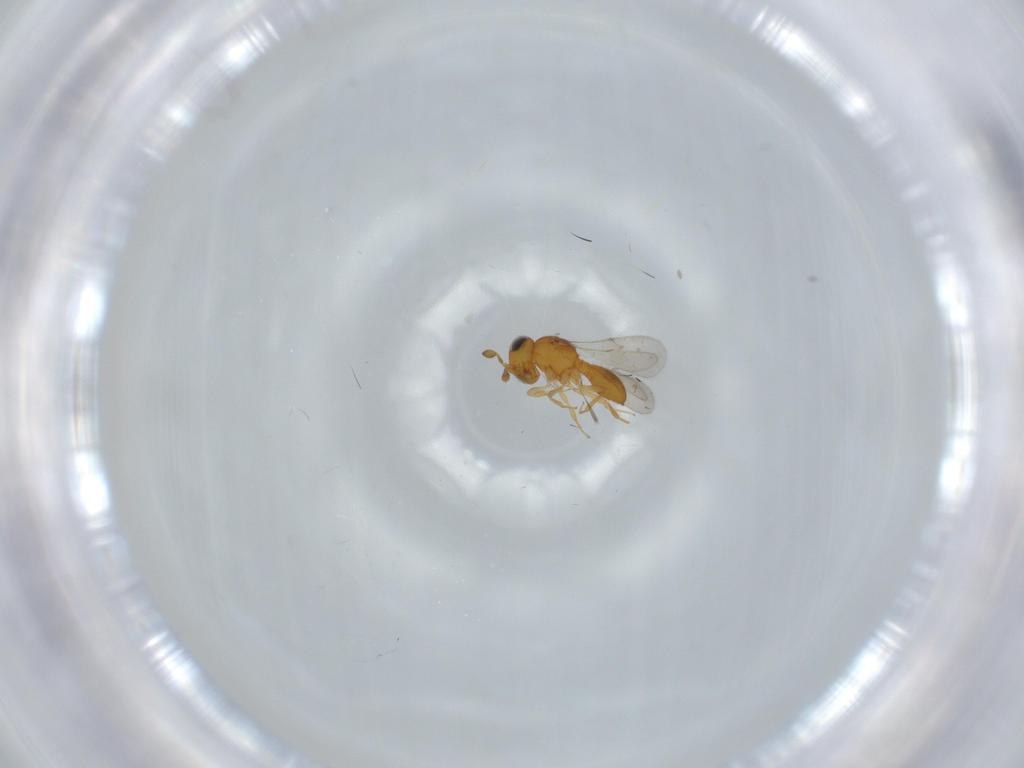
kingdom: Animalia
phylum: Arthropoda
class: Insecta
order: Hymenoptera
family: Scelionidae
